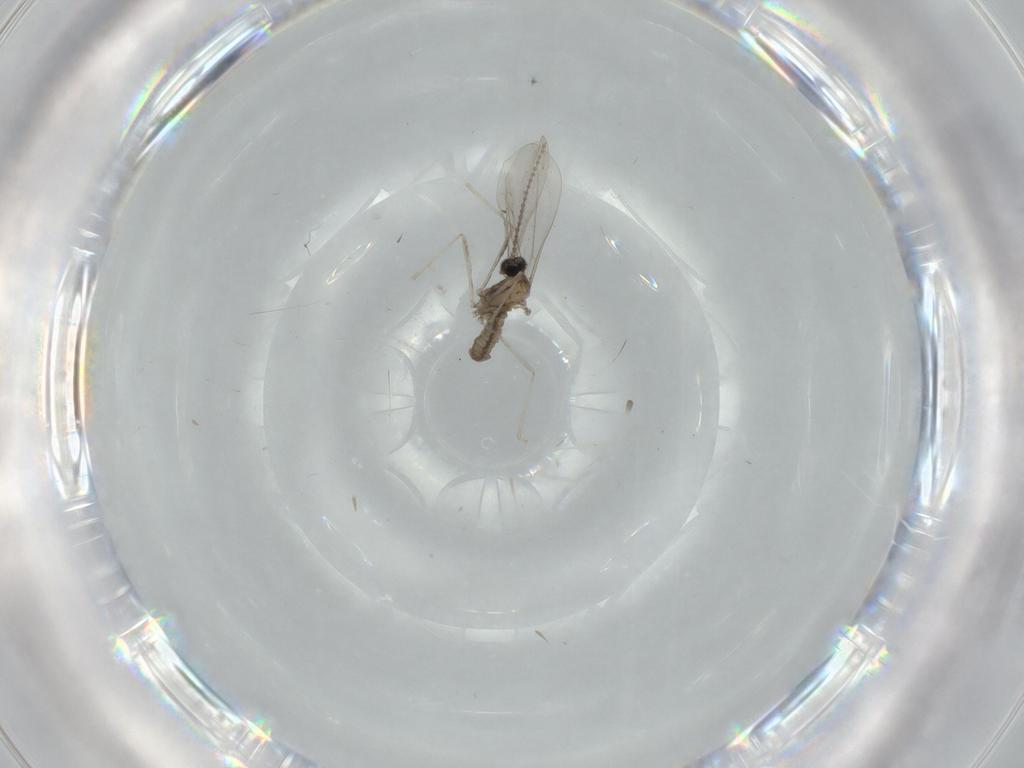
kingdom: Animalia
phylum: Arthropoda
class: Insecta
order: Diptera
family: Cecidomyiidae
